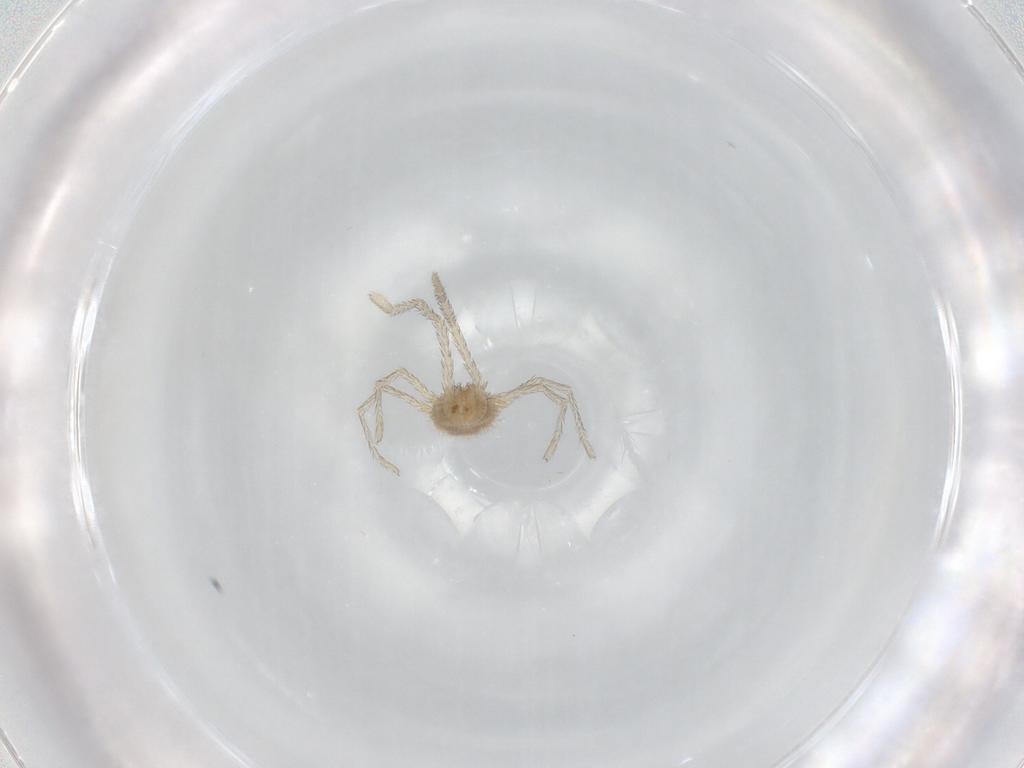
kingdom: Animalia
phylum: Arthropoda
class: Arachnida
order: Trombidiformes
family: Erythraeidae
